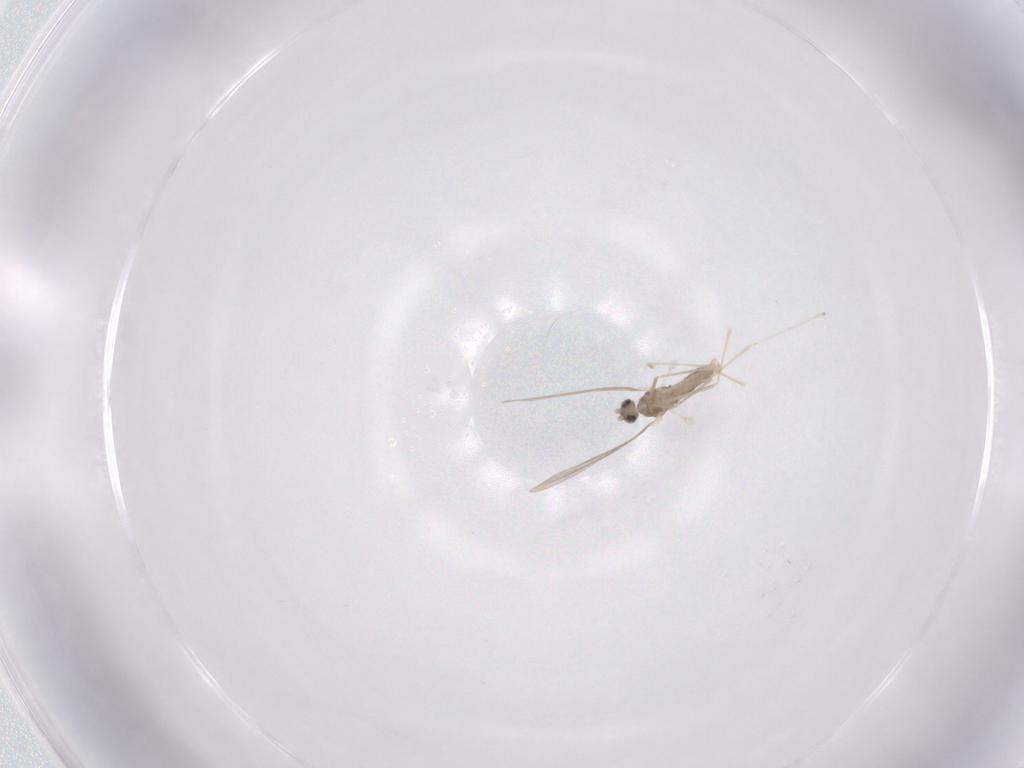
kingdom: Animalia
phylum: Arthropoda
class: Insecta
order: Diptera
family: Cecidomyiidae
